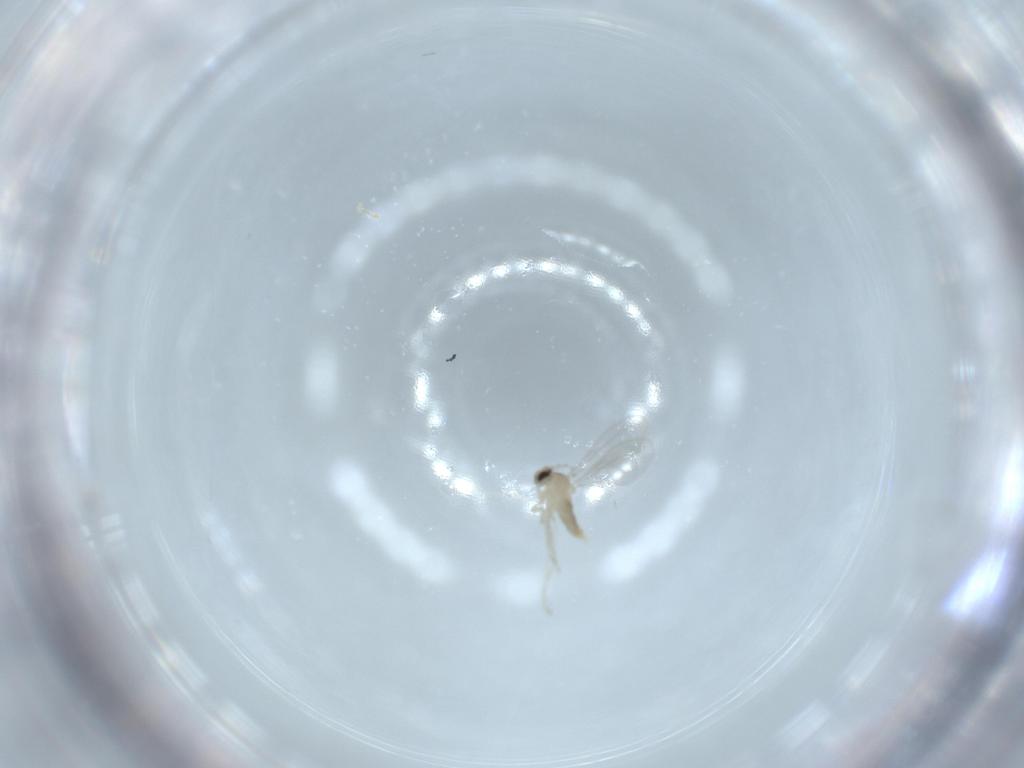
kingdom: Animalia
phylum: Arthropoda
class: Insecta
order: Diptera
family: Cecidomyiidae
